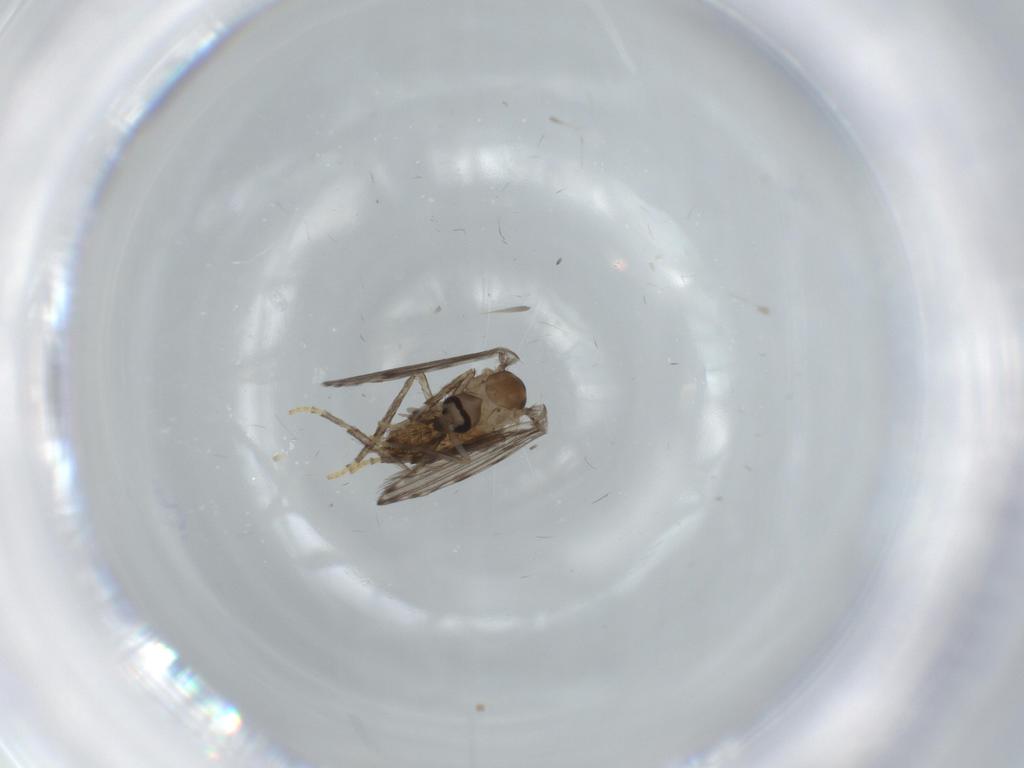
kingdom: Animalia
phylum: Arthropoda
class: Insecta
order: Diptera
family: Psychodidae
